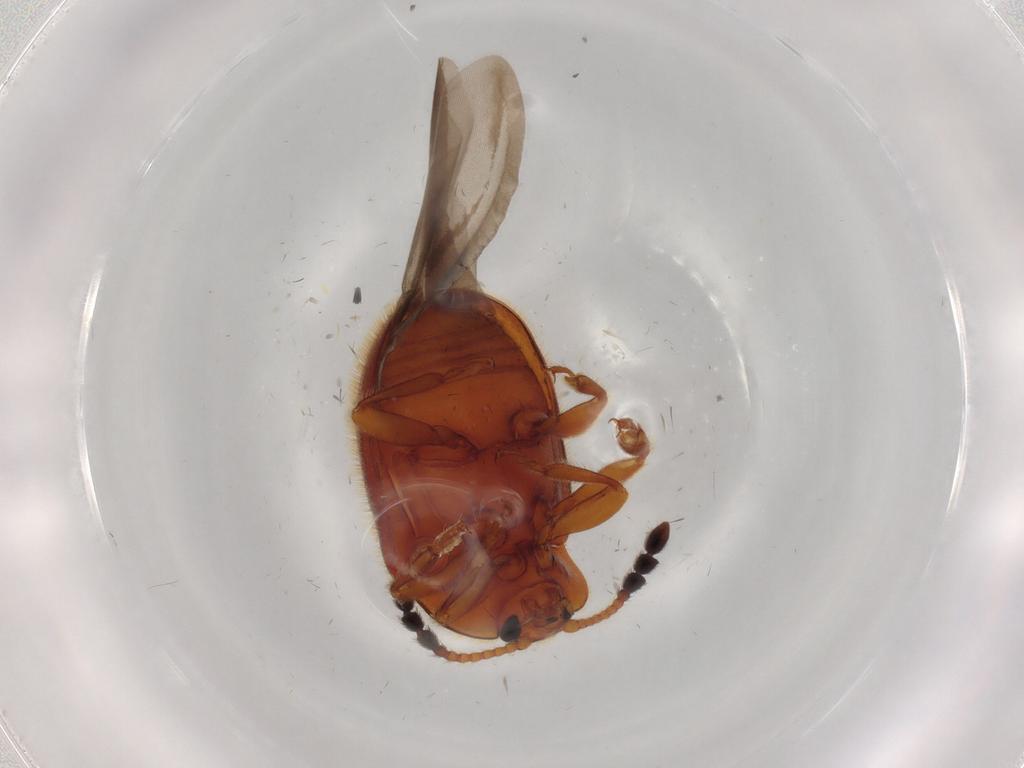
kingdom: Animalia
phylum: Arthropoda
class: Insecta
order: Coleoptera
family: Endomychidae
